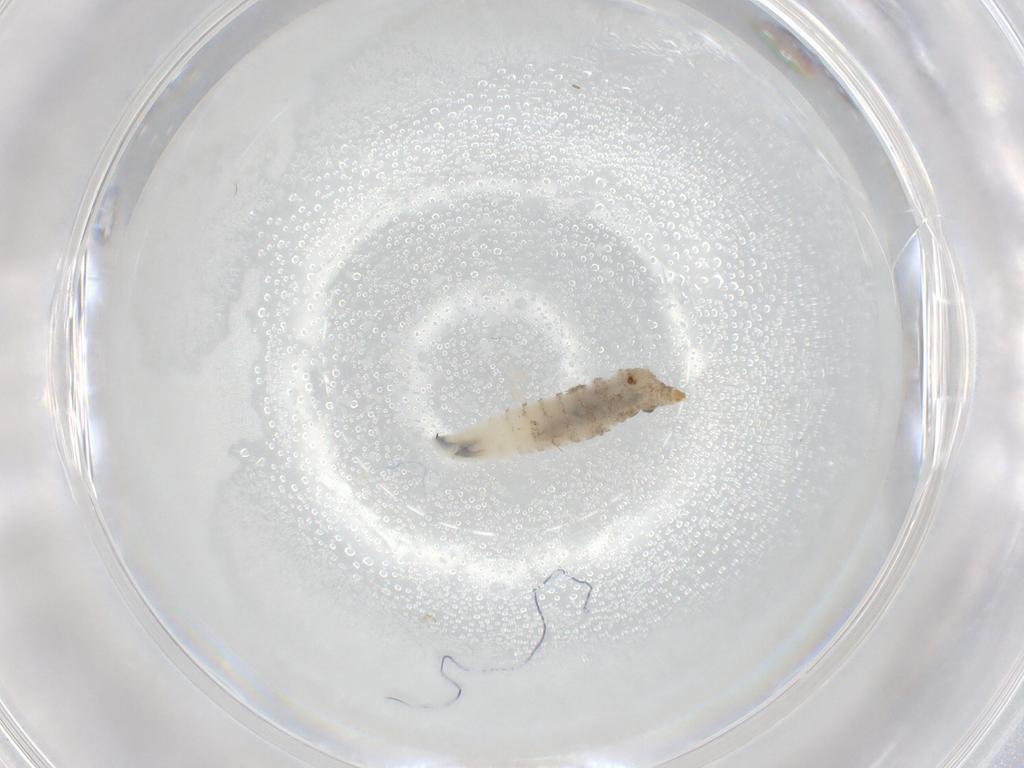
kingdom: Animalia
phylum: Arthropoda
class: Insecta
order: Diptera
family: Chironomidae
